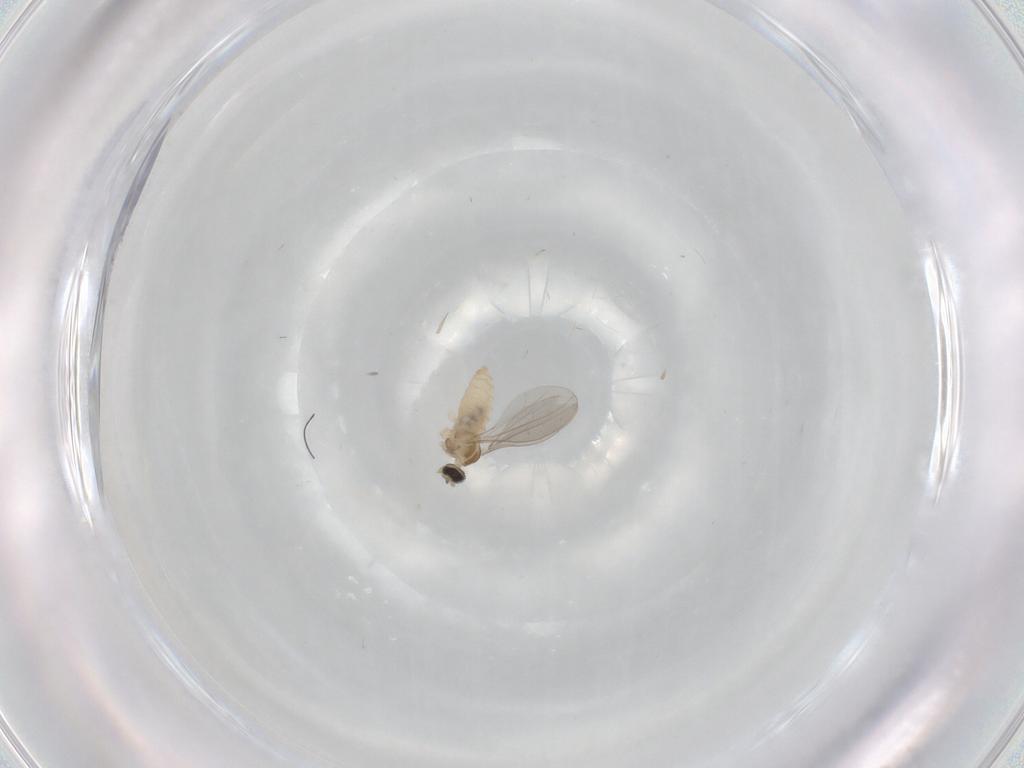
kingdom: Animalia
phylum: Arthropoda
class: Insecta
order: Diptera
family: Cecidomyiidae
